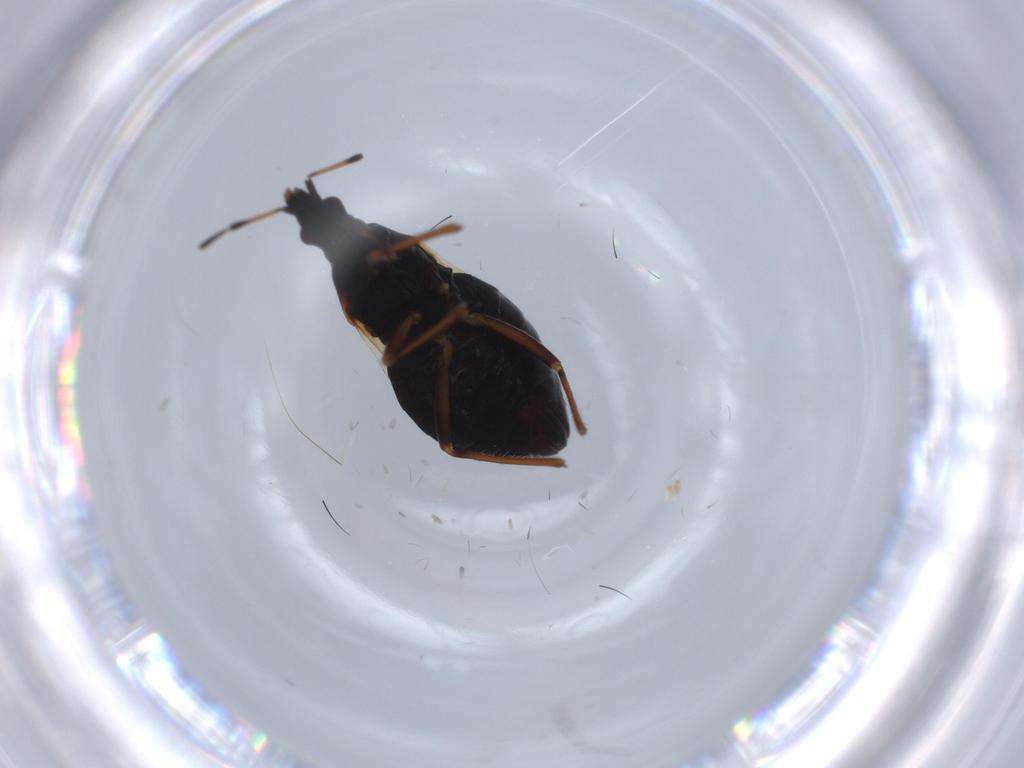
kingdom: Animalia
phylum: Arthropoda
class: Insecta
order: Hemiptera
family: Anthocoridae
